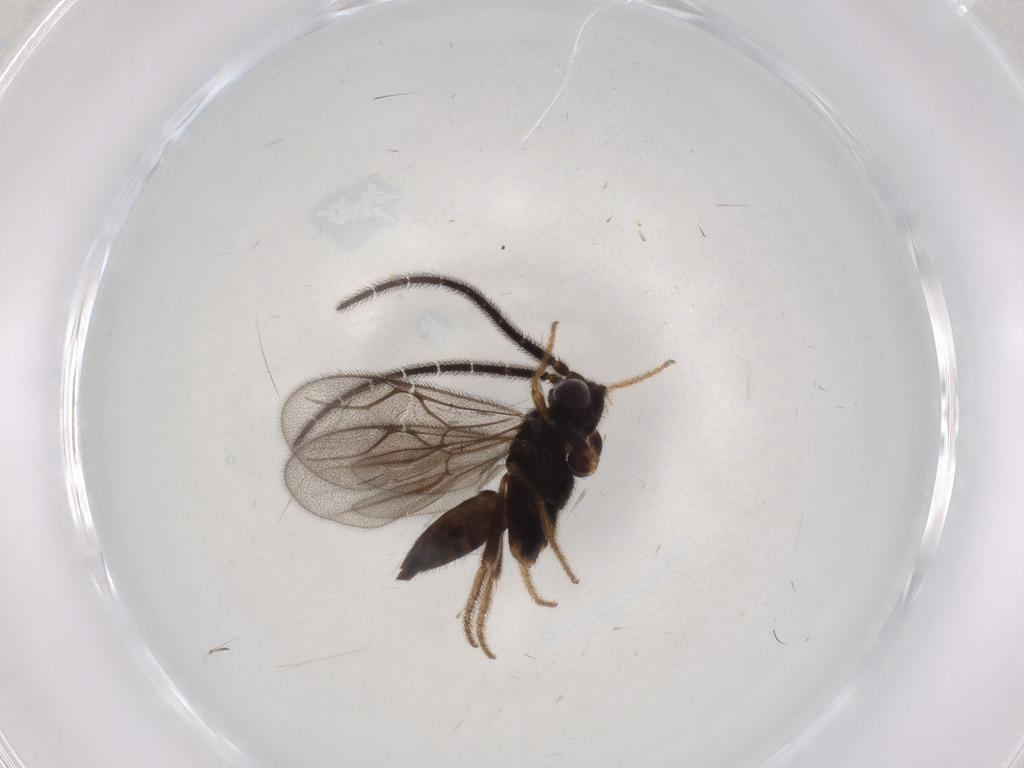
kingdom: Animalia
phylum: Arthropoda
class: Insecta
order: Hymenoptera
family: Dryinidae
